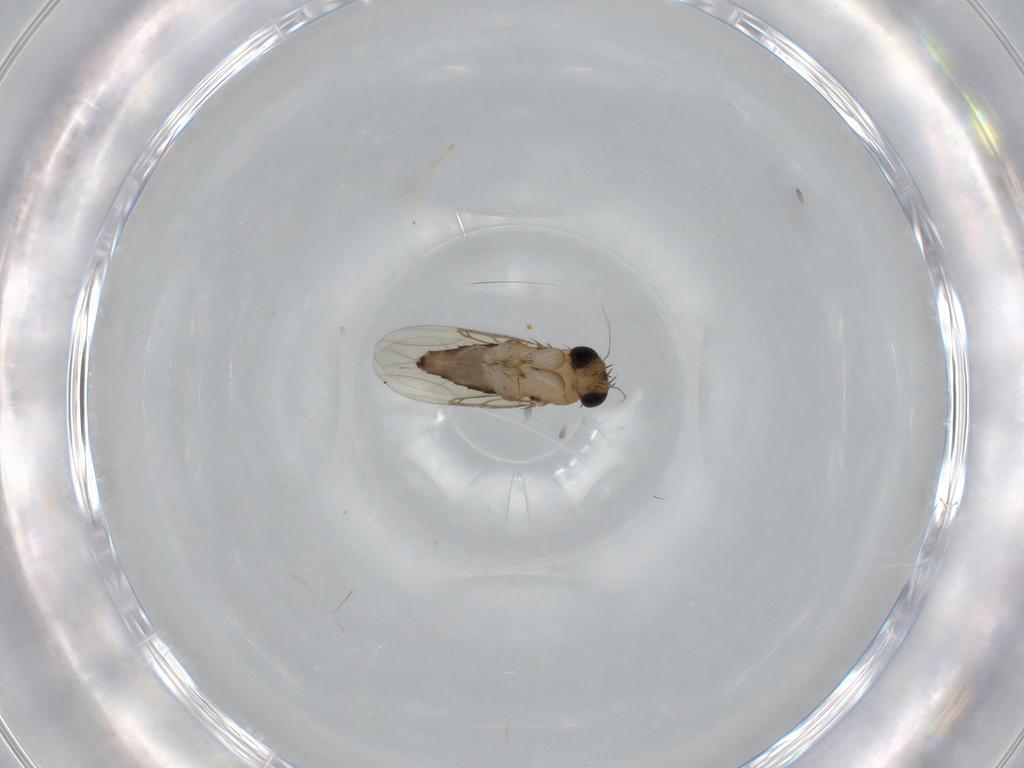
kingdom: Animalia
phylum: Arthropoda
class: Insecta
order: Diptera
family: Phoridae
